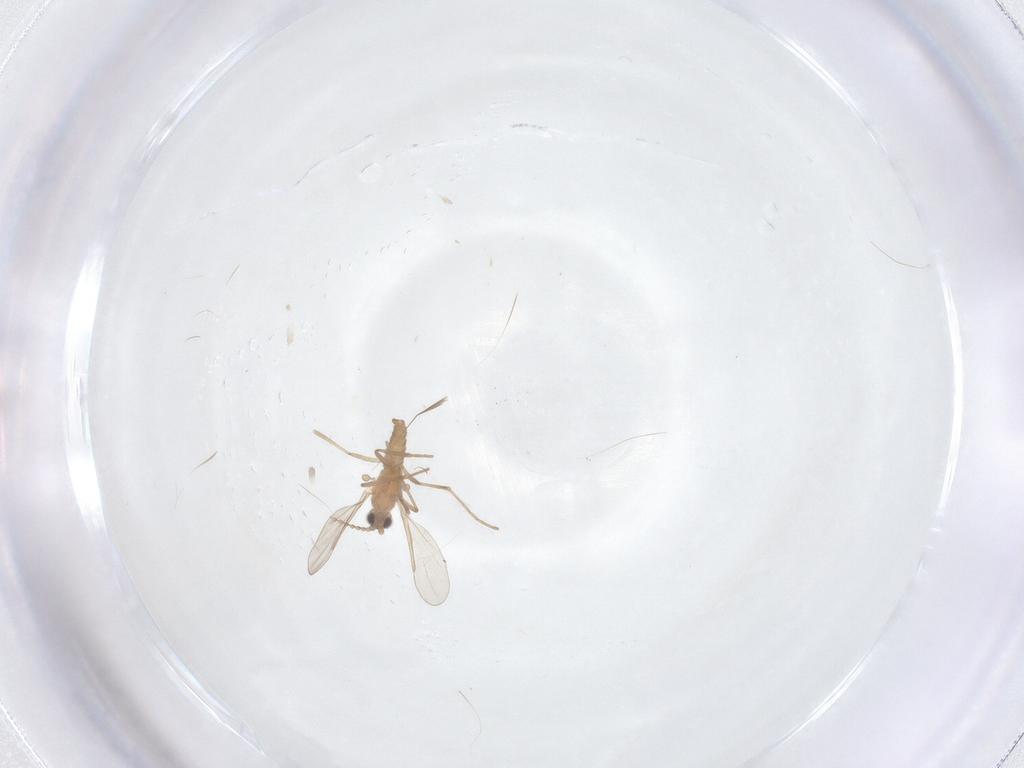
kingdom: Animalia
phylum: Arthropoda
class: Insecta
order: Diptera
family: Cecidomyiidae
